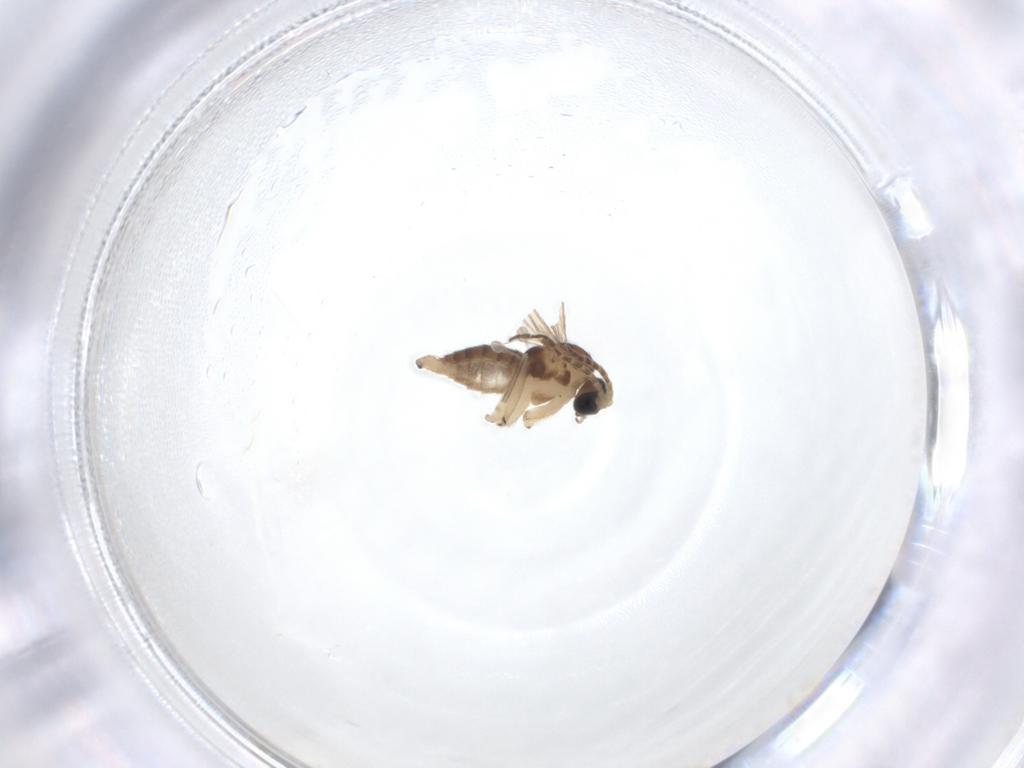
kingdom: Animalia
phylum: Arthropoda
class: Insecta
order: Diptera
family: Sciaridae
